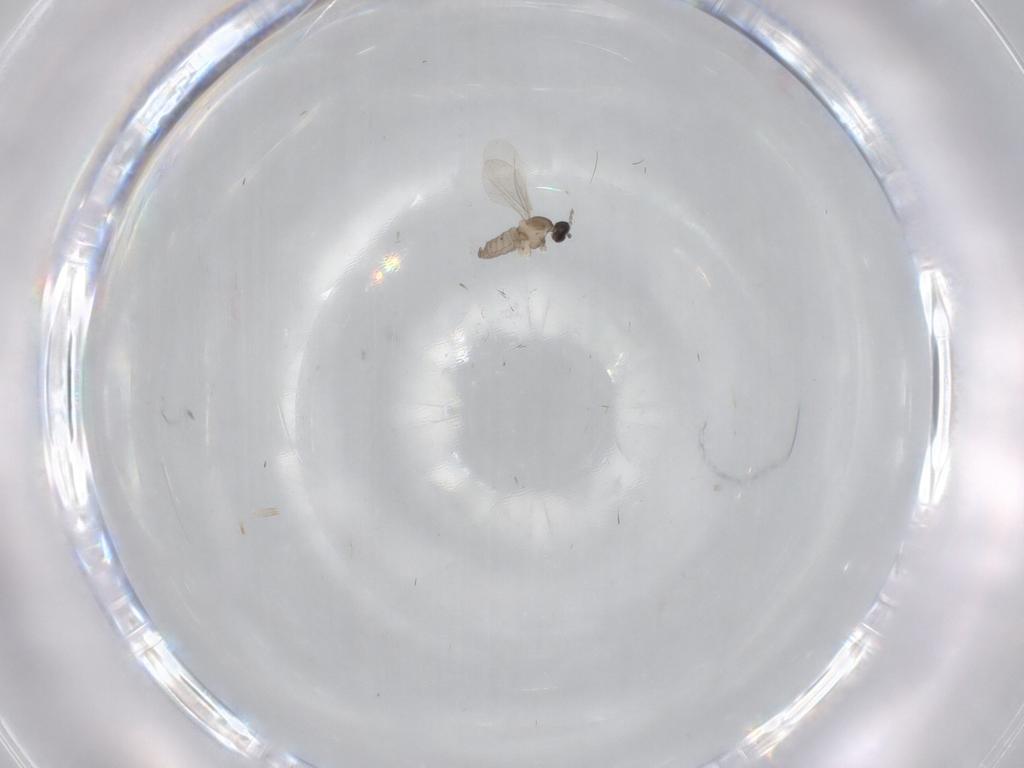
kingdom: Animalia
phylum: Arthropoda
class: Insecta
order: Diptera
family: Cecidomyiidae
